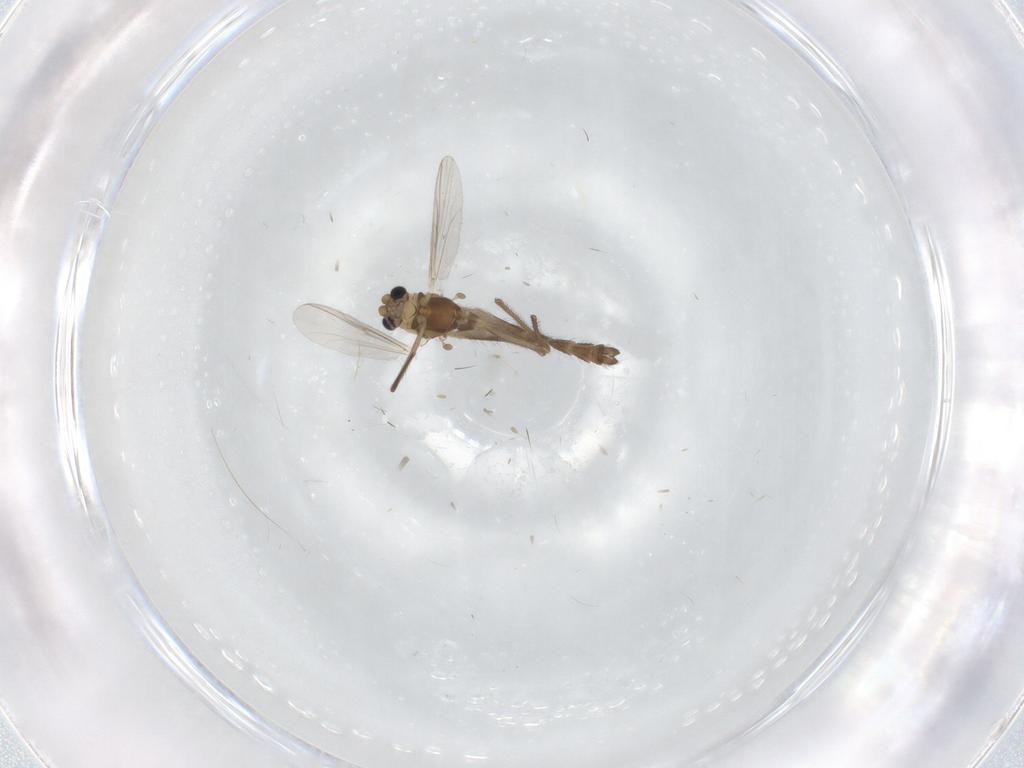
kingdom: Animalia
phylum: Arthropoda
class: Insecta
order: Diptera
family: Chironomidae
